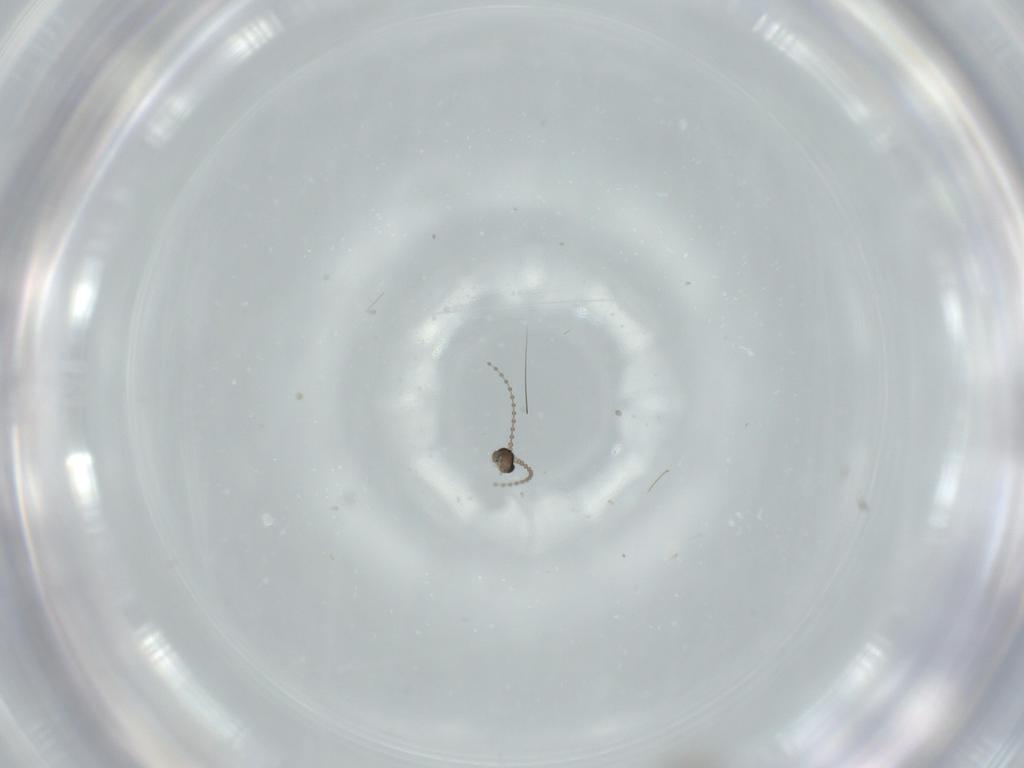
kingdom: Animalia
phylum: Arthropoda
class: Insecta
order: Diptera
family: Cecidomyiidae
